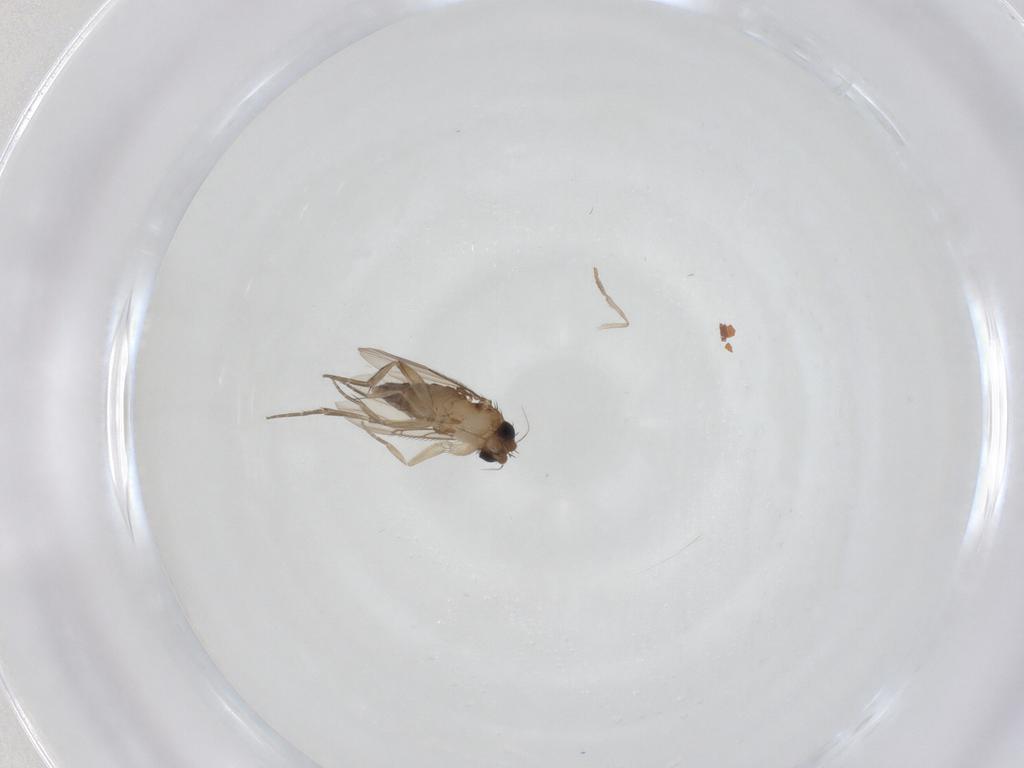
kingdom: Animalia
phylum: Arthropoda
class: Insecta
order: Diptera
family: Phoridae
